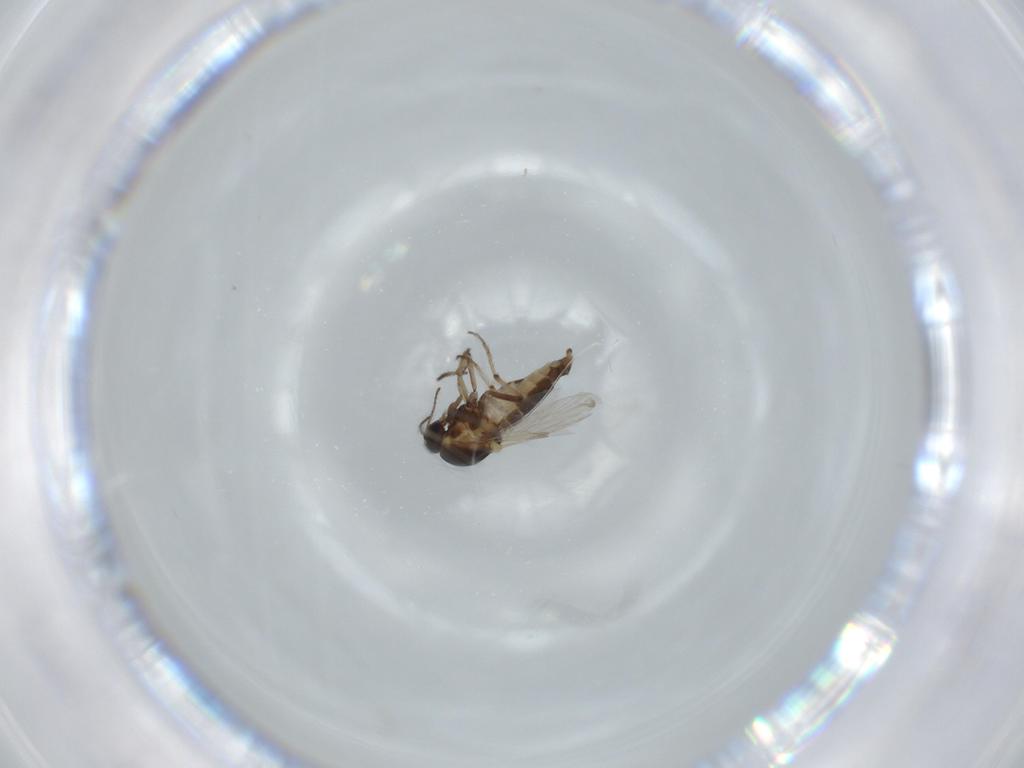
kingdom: Animalia
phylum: Arthropoda
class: Insecta
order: Diptera
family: Ceratopogonidae
